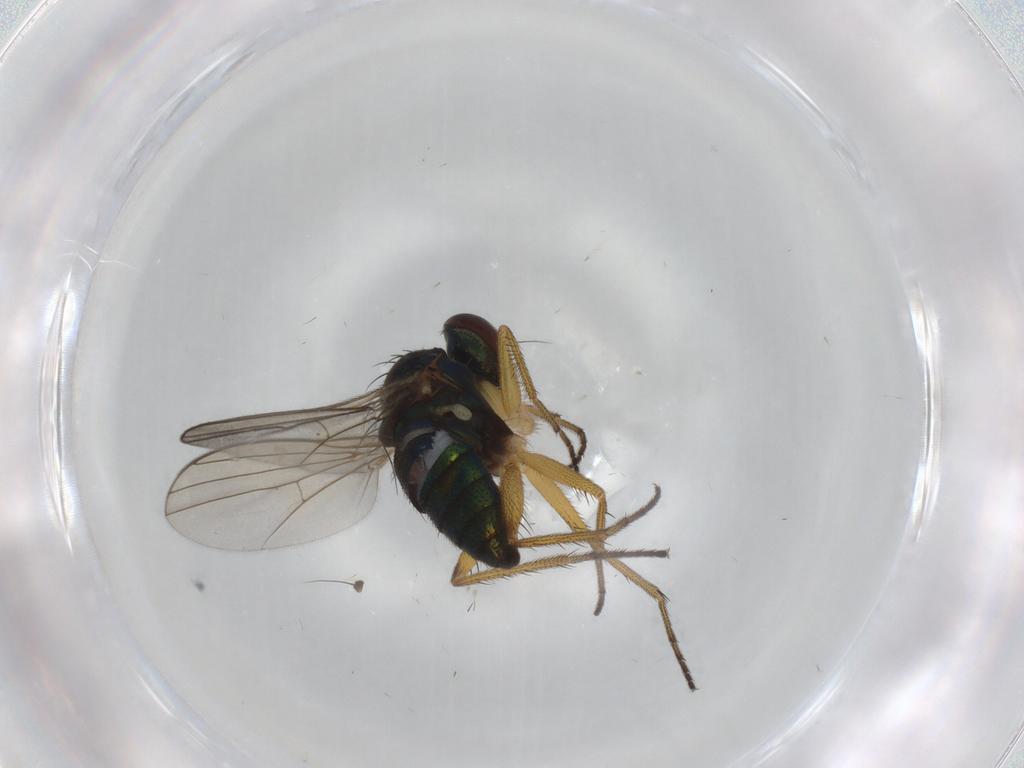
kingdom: Animalia
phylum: Arthropoda
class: Insecta
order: Diptera
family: Dolichopodidae
